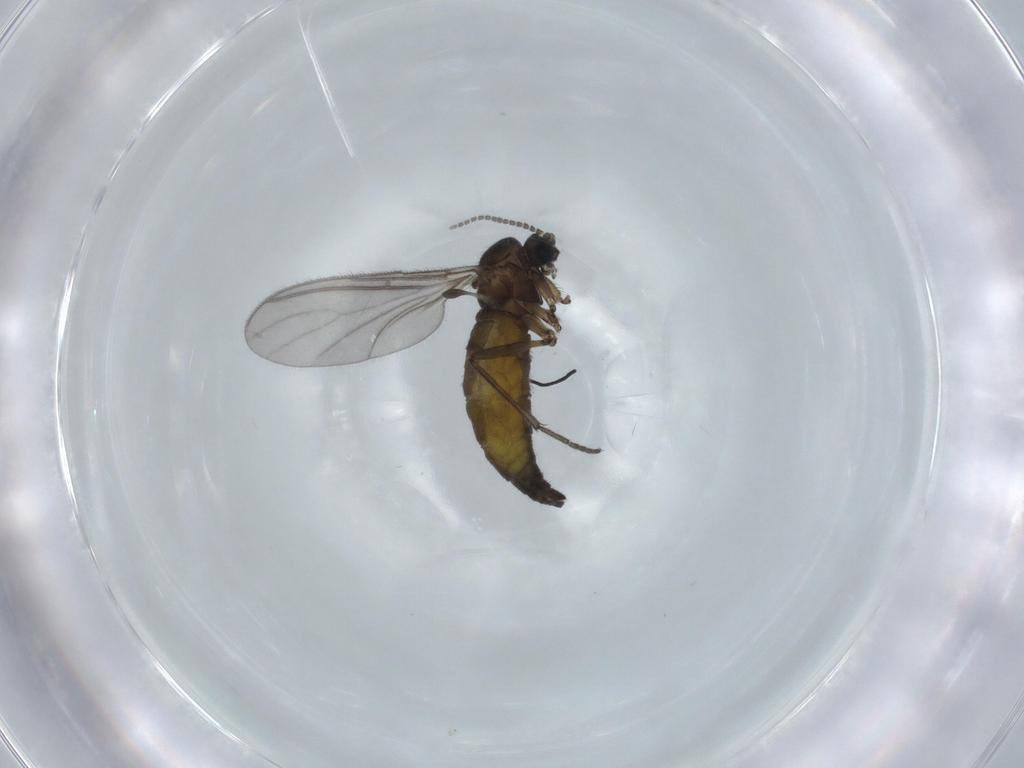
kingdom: Animalia
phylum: Arthropoda
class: Insecta
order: Diptera
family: Sciaridae
